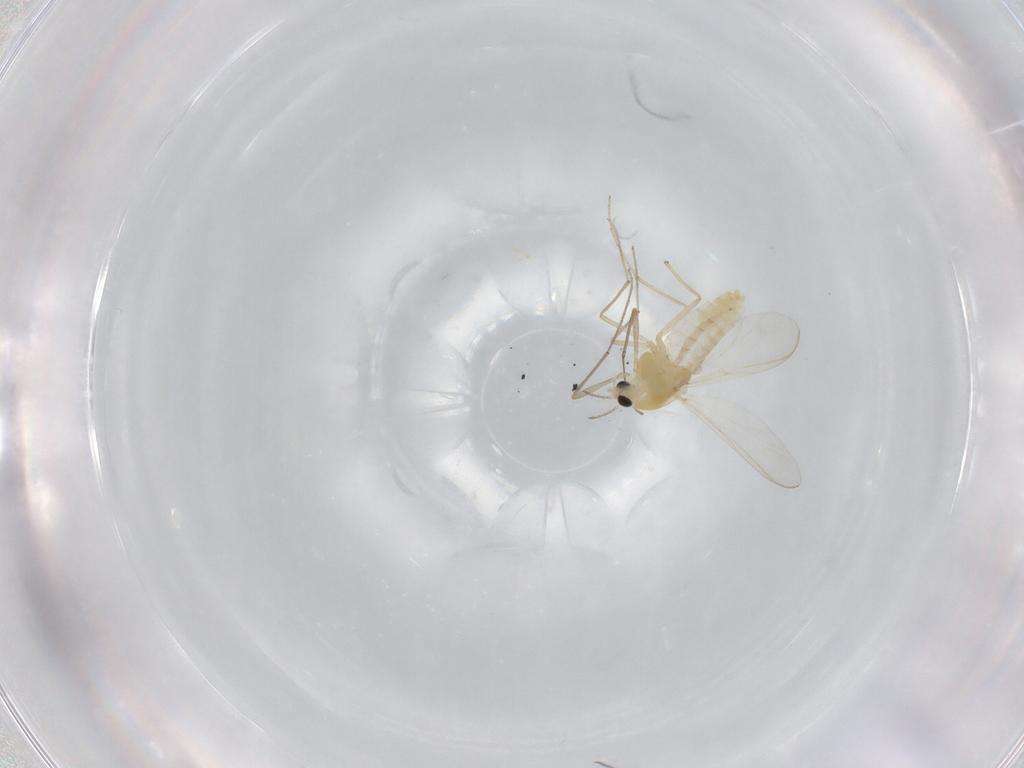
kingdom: Animalia
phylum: Arthropoda
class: Insecta
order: Diptera
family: Chironomidae
